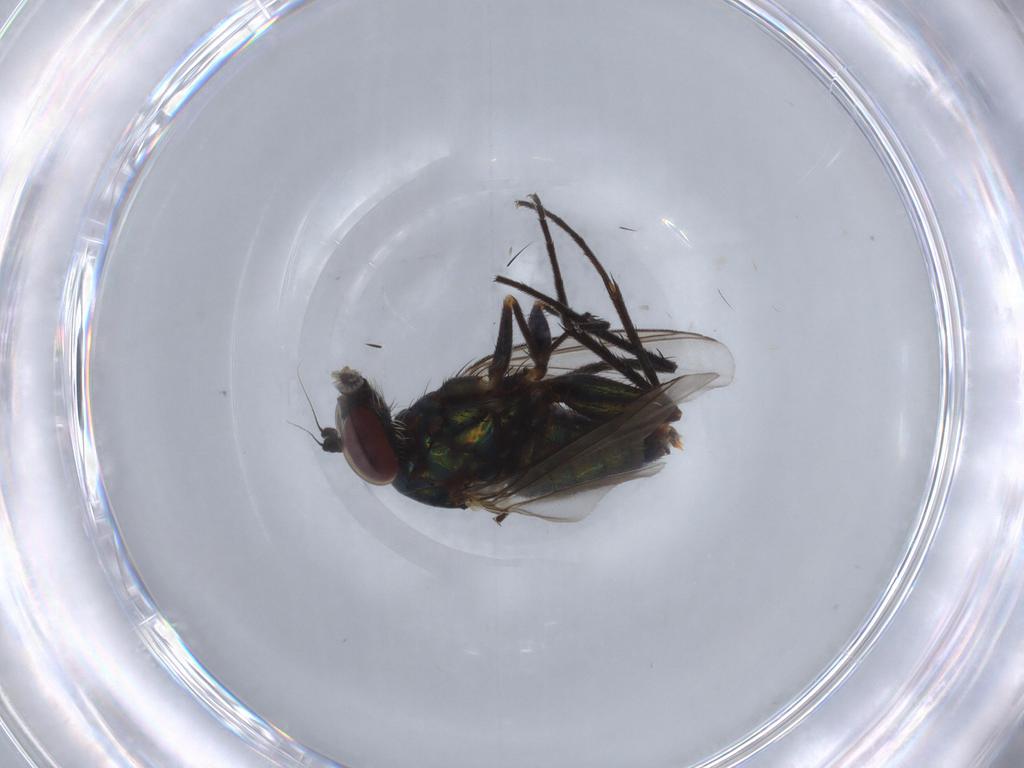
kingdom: Animalia
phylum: Arthropoda
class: Insecta
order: Diptera
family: Dolichopodidae
